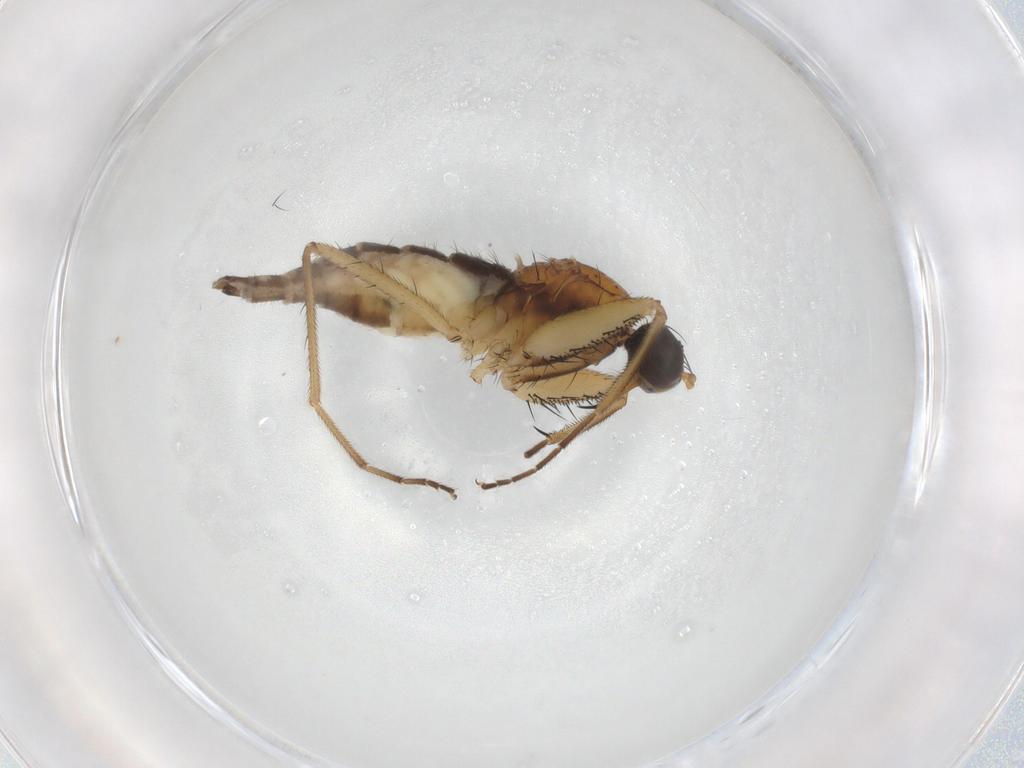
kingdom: Animalia
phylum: Arthropoda
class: Insecta
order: Diptera
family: Empididae
